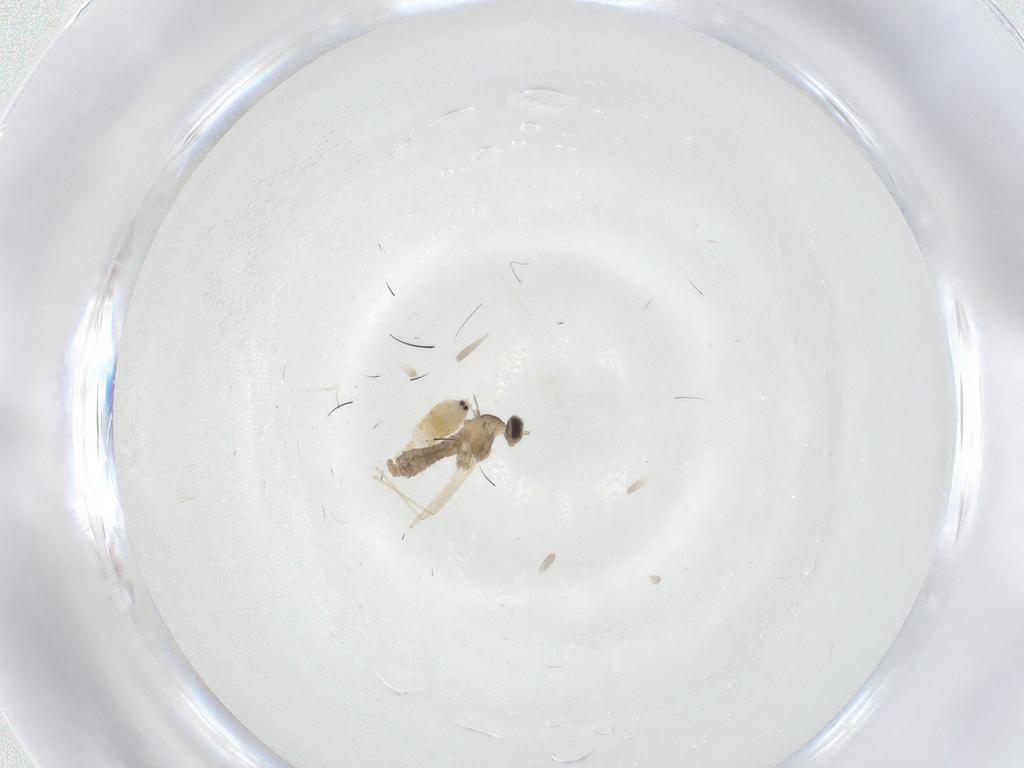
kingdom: Animalia
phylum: Arthropoda
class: Insecta
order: Diptera
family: Cecidomyiidae
